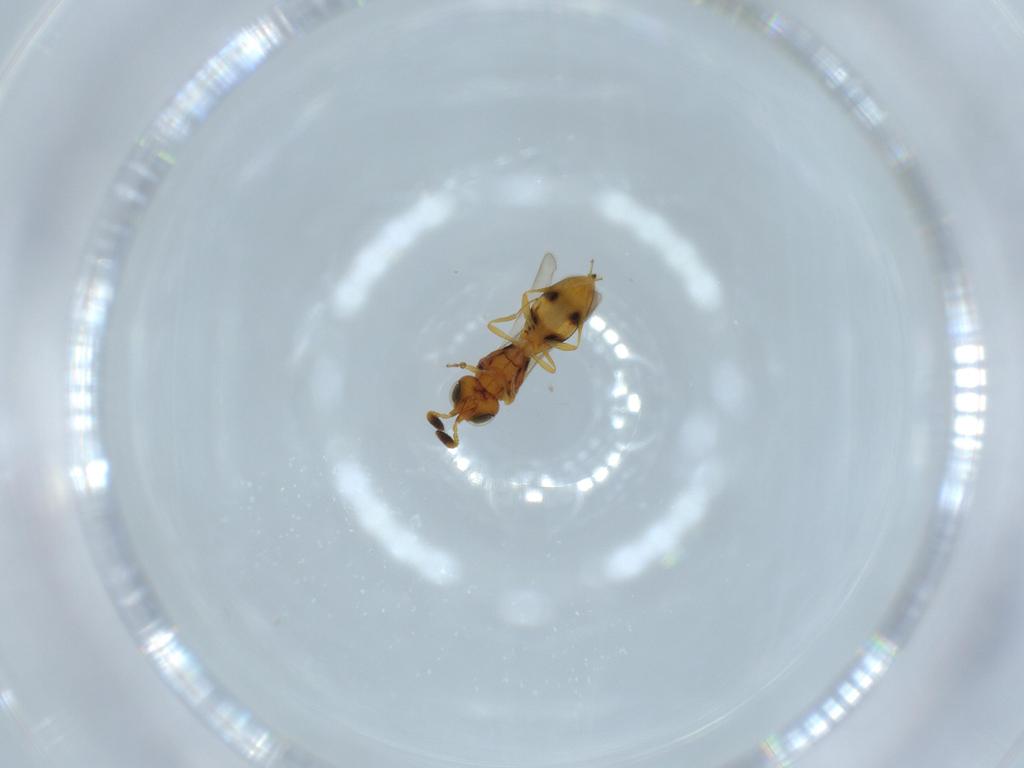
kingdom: Animalia
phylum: Arthropoda
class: Insecta
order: Hymenoptera
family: Scelionidae
